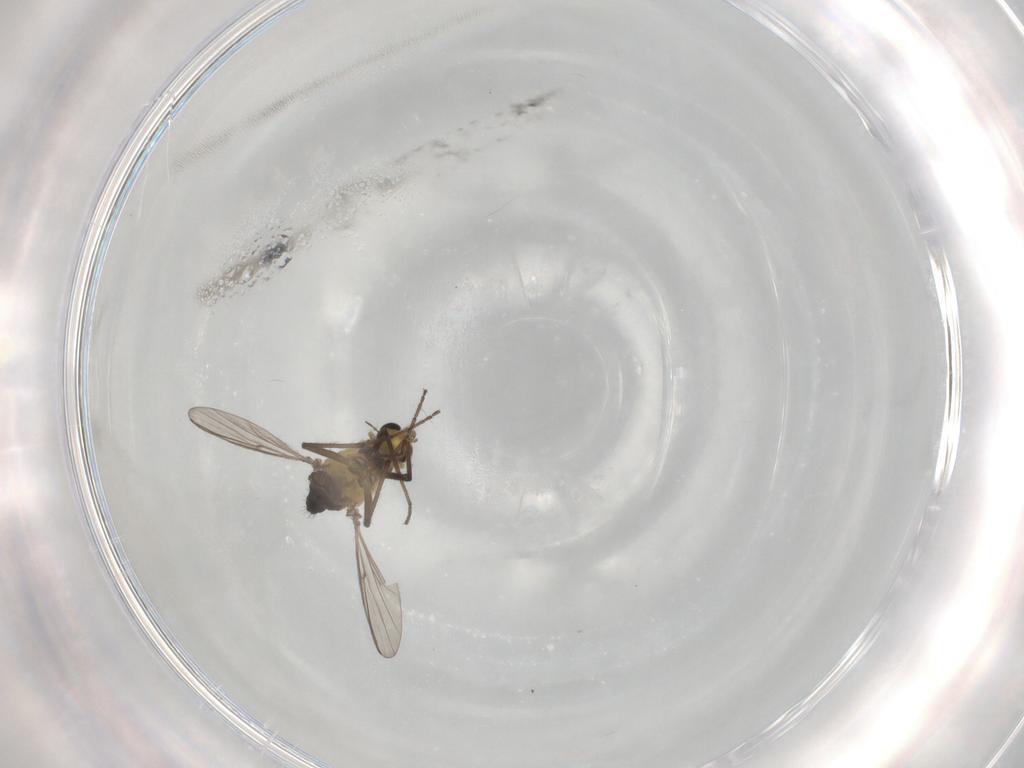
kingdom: Animalia
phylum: Arthropoda
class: Insecta
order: Diptera
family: Chironomidae
